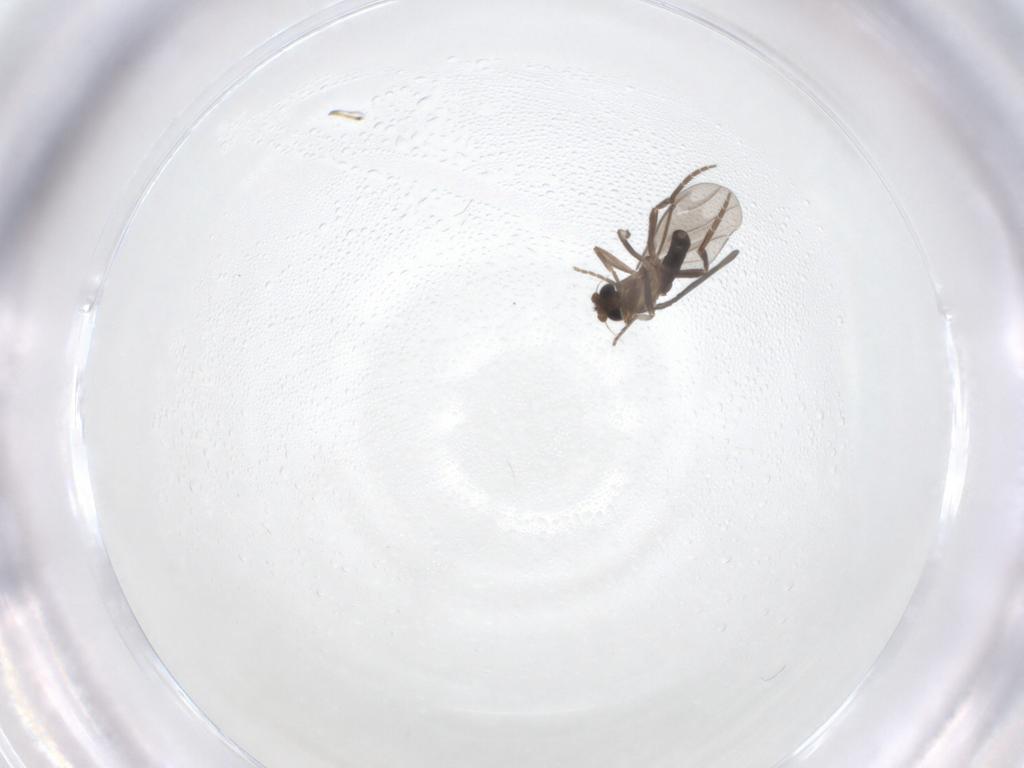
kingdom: Animalia
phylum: Arthropoda
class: Insecta
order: Diptera
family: Phoridae
